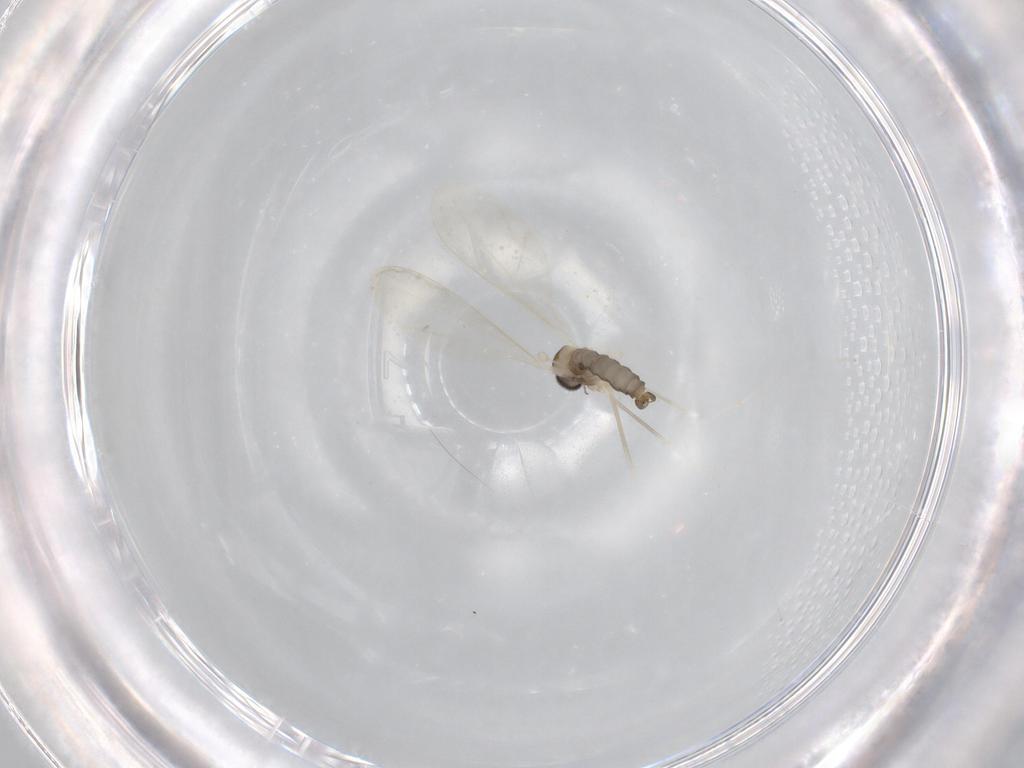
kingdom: Animalia
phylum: Arthropoda
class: Insecta
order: Diptera
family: Cecidomyiidae
